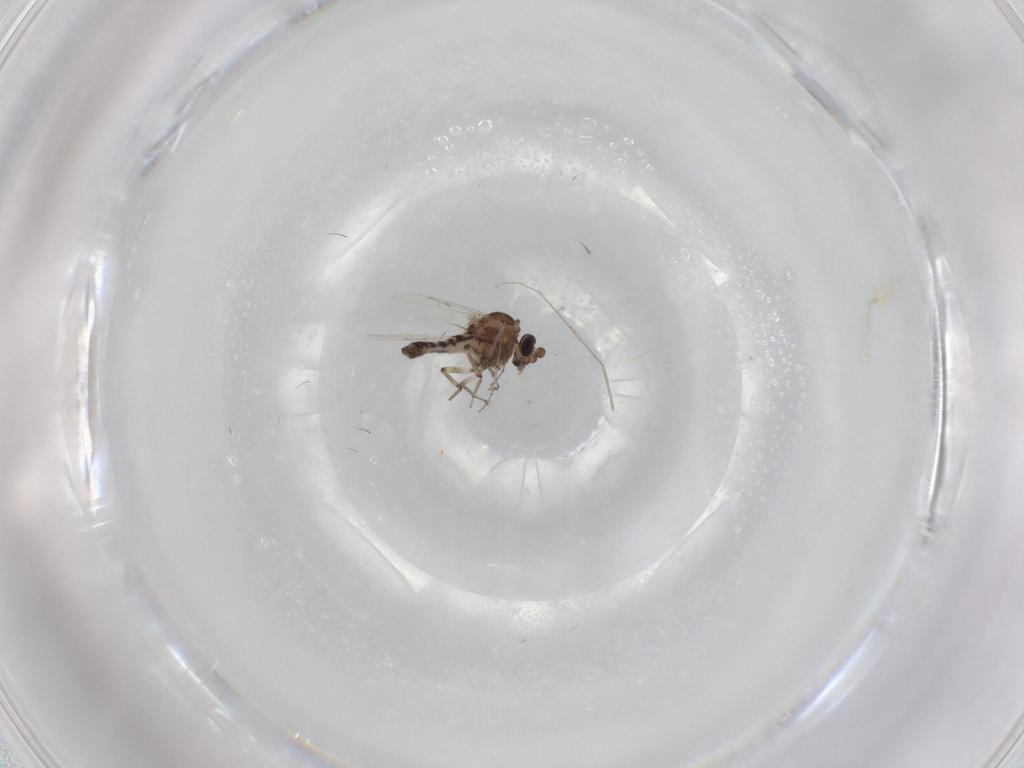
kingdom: Animalia
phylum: Arthropoda
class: Insecta
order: Diptera
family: Ceratopogonidae
